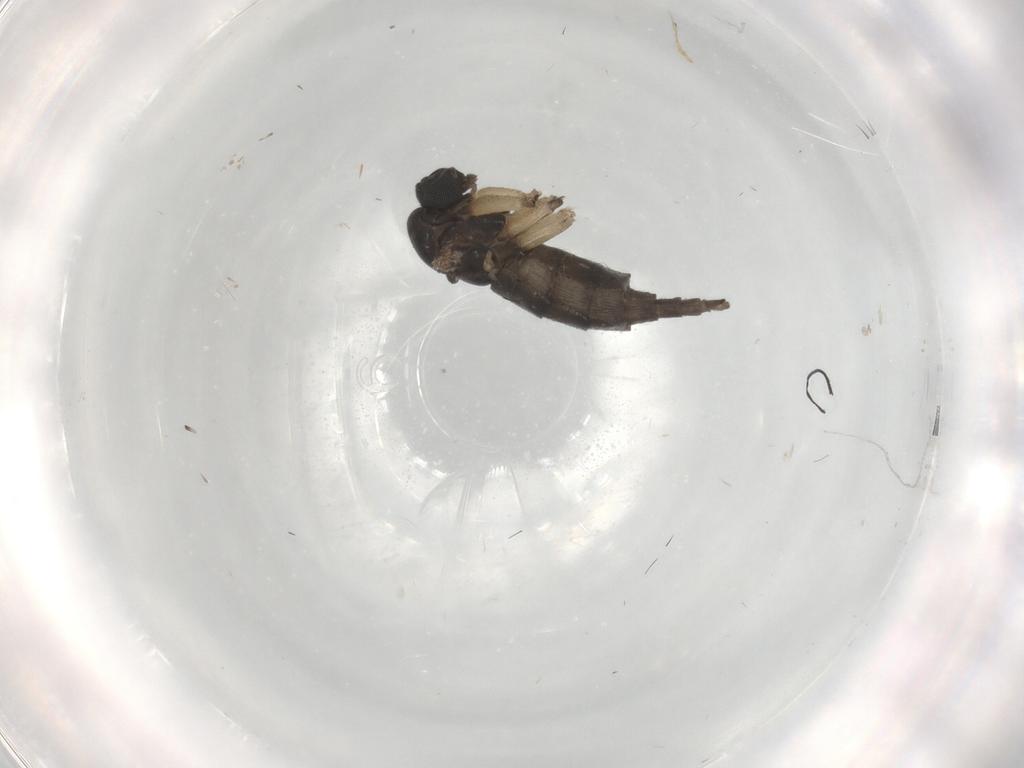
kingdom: Animalia
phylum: Arthropoda
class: Insecta
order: Diptera
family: Sciaridae
